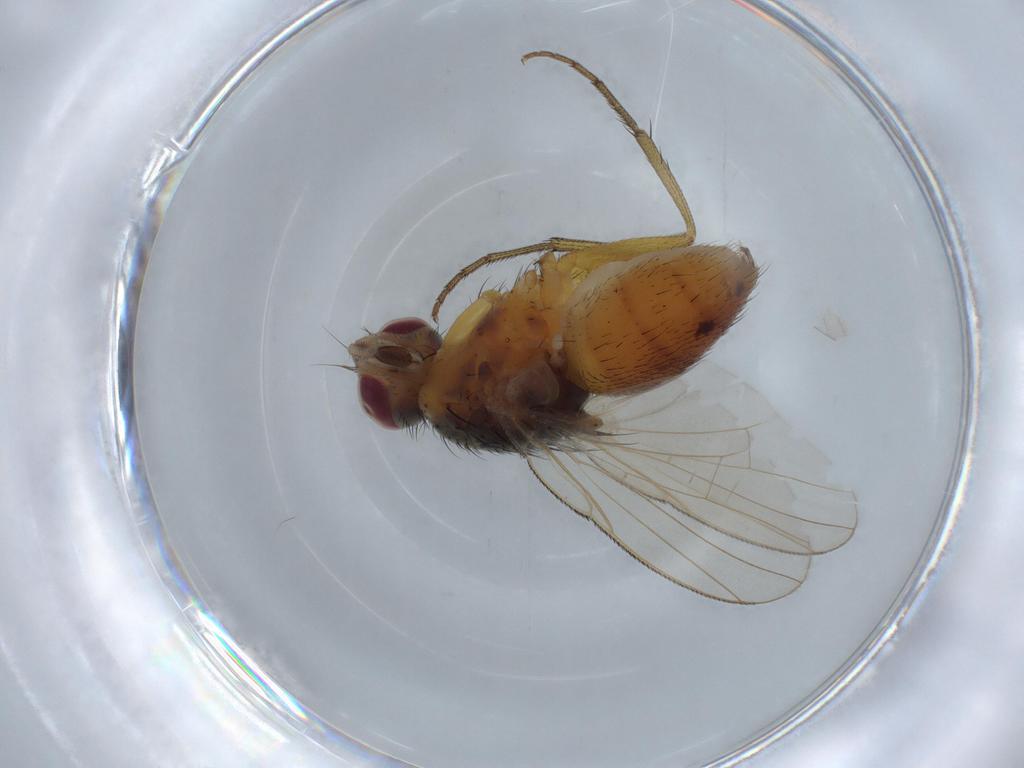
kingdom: Animalia
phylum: Arthropoda
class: Insecta
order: Diptera
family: Muscidae
